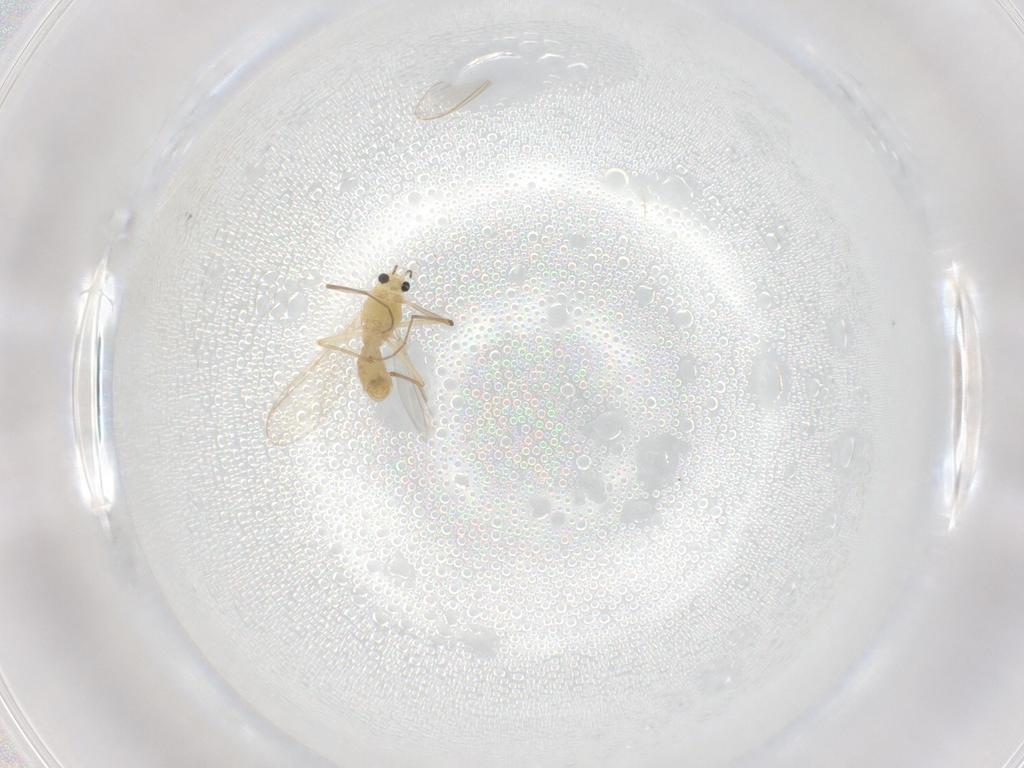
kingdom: Animalia
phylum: Arthropoda
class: Insecta
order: Diptera
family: Chironomidae
